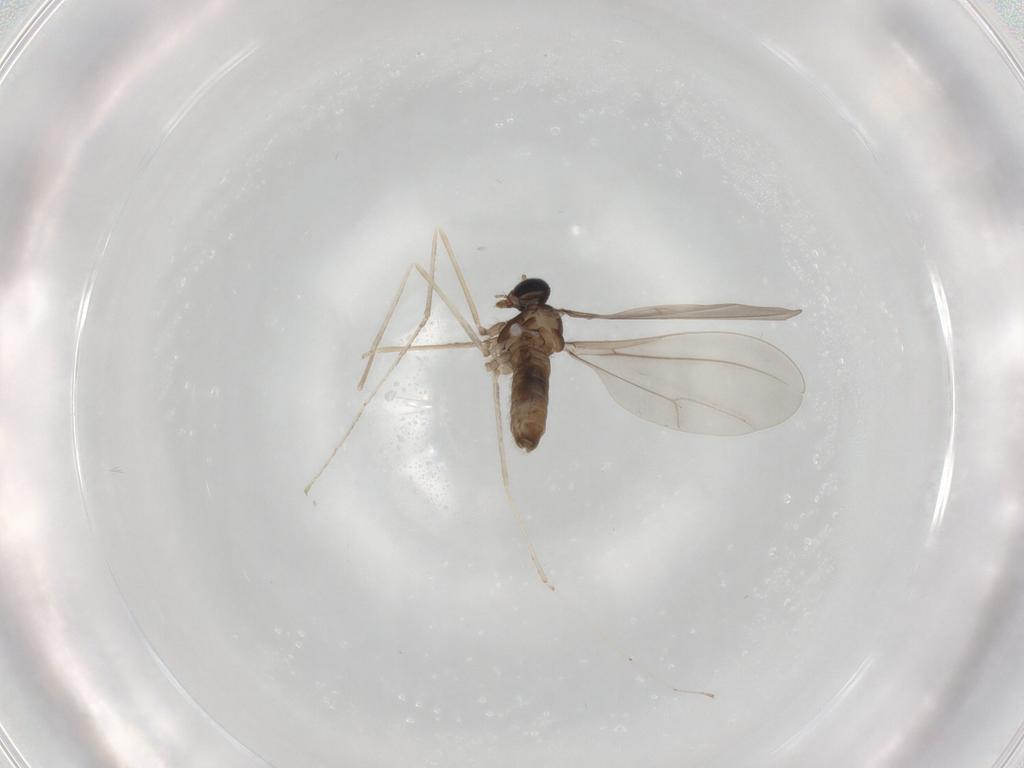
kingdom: Animalia
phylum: Arthropoda
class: Insecta
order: Diptera
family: Cecidomyiidae
